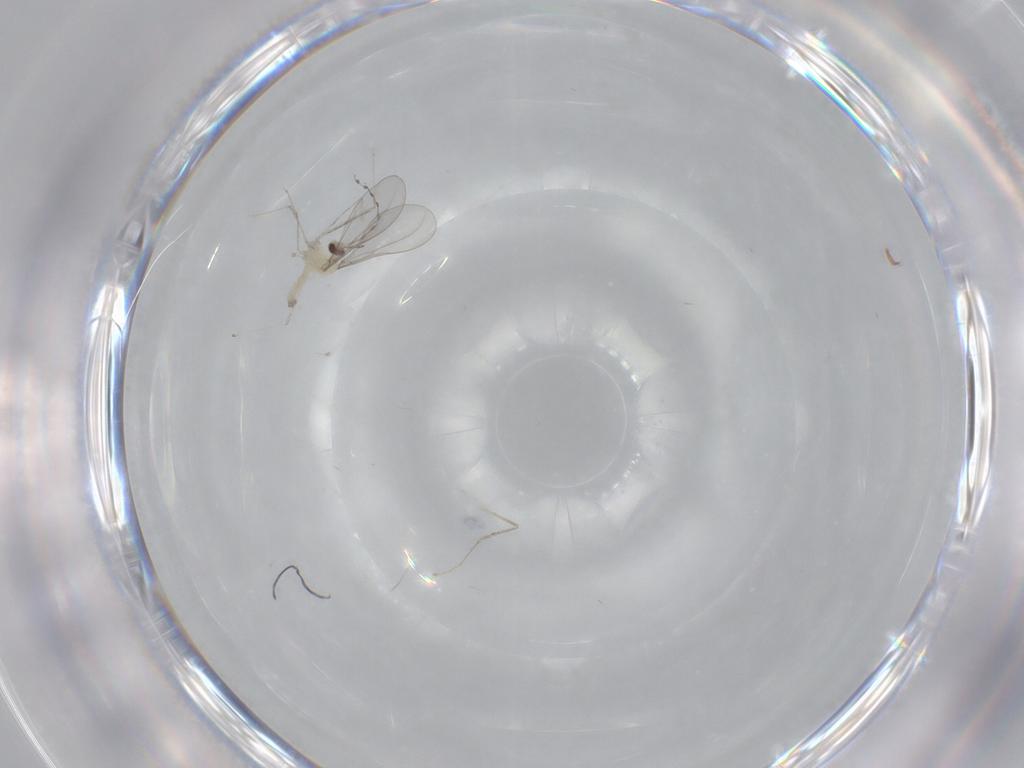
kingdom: Animalia
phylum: Arthropoda
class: Insecta
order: Diptera
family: Cecidomyiidae
